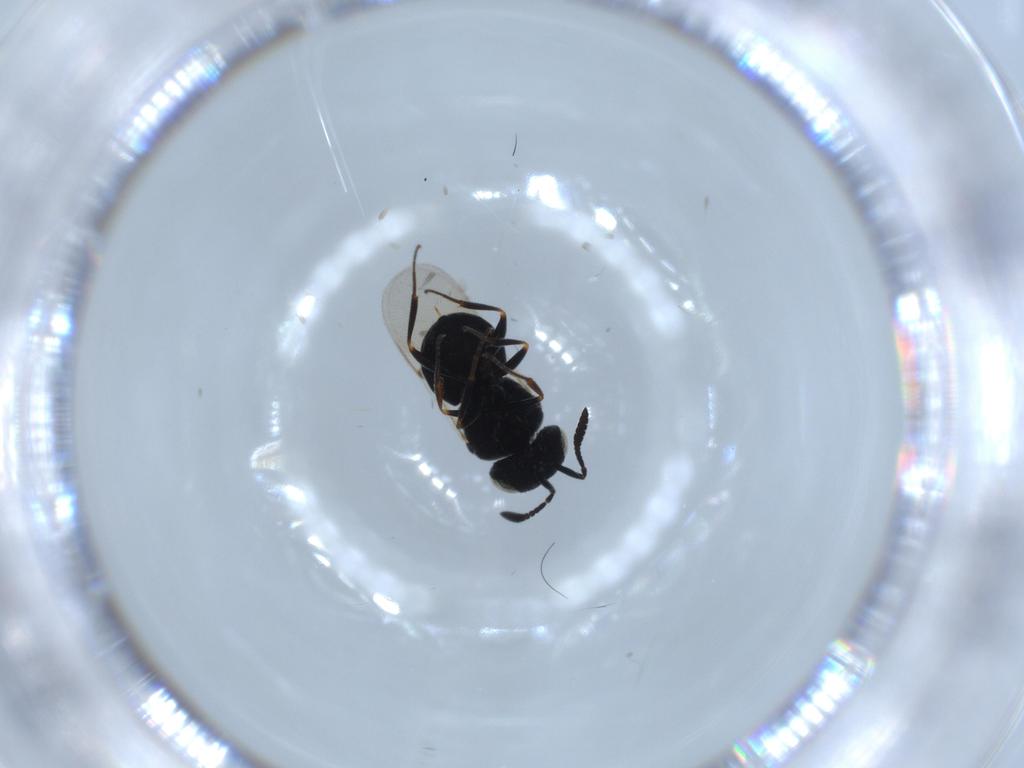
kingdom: Animalia
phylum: Arthropoda
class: Insecta
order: Hymenoptera
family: Scelionidae
